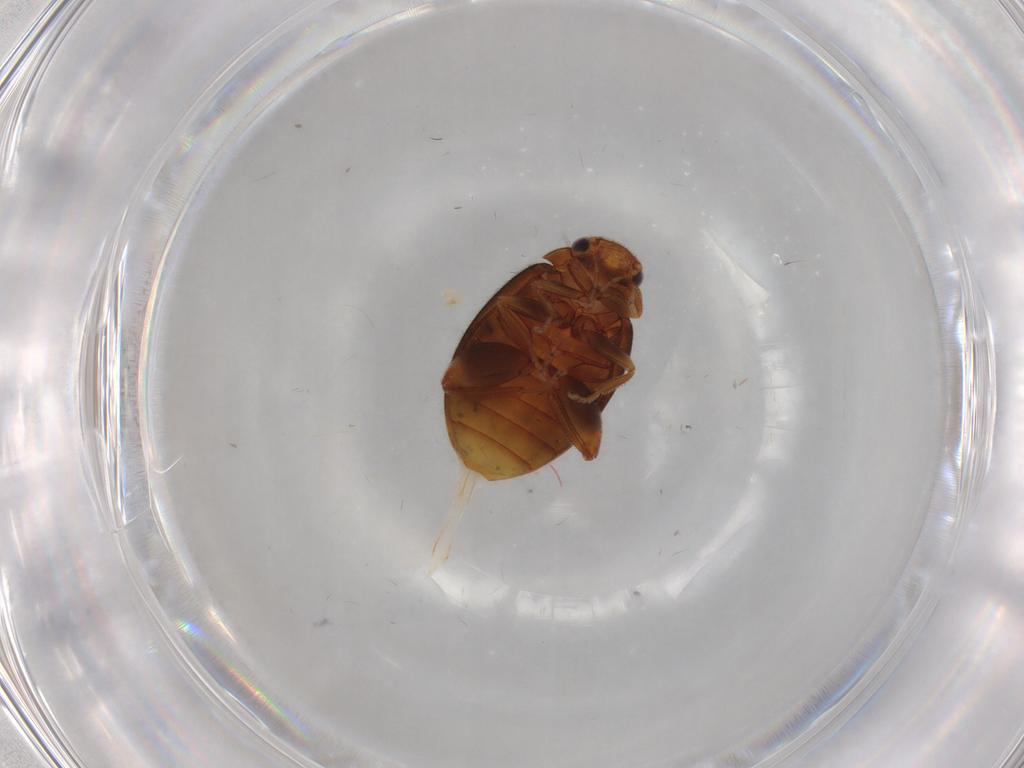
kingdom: Animalia
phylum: Arthropoda
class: Insecta
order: Coleoptera
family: Scirtidae
